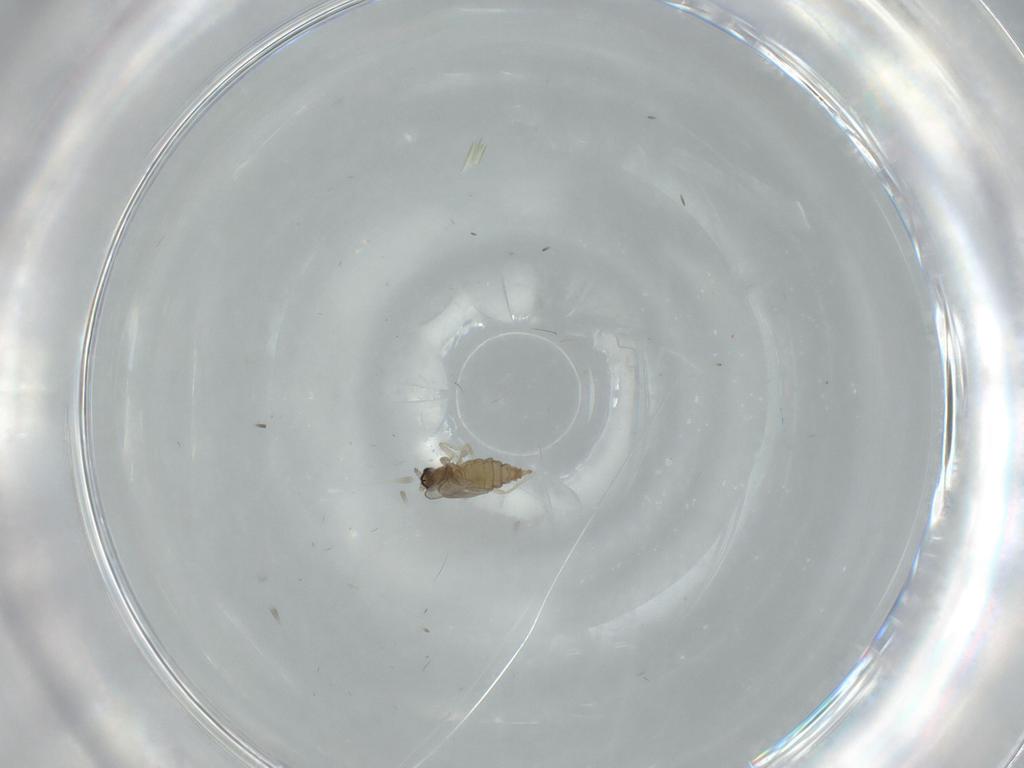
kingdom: Animalia
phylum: Arthropoda
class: Insecta
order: Diptera
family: Cecidomyiidae
